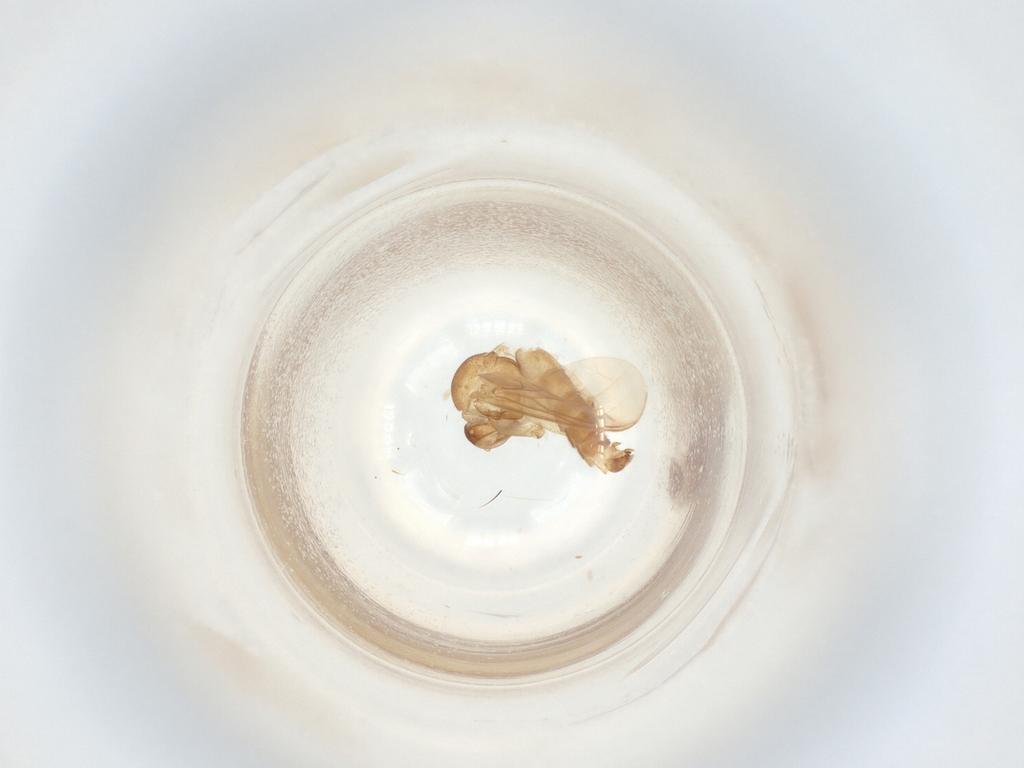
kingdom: Animalia
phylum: Arthropoda
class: Insecta
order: Diptera
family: Mycetophilidae
